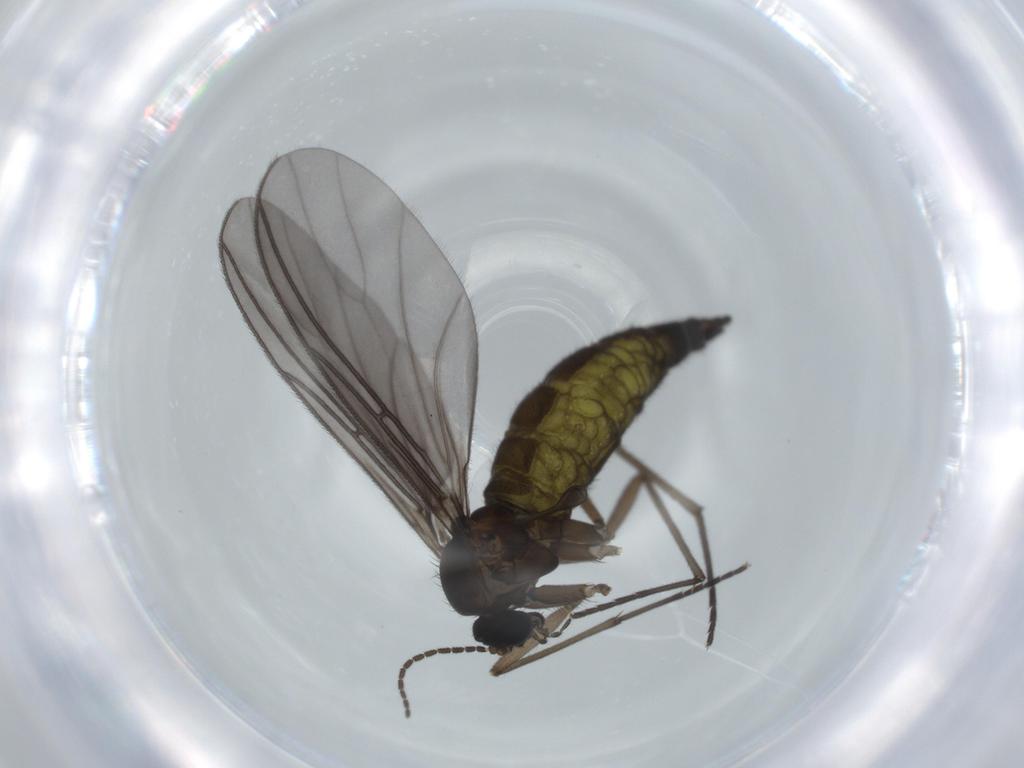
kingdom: Animalia
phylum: Arthropoda
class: Insecta
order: Diptera
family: Sciaridae
